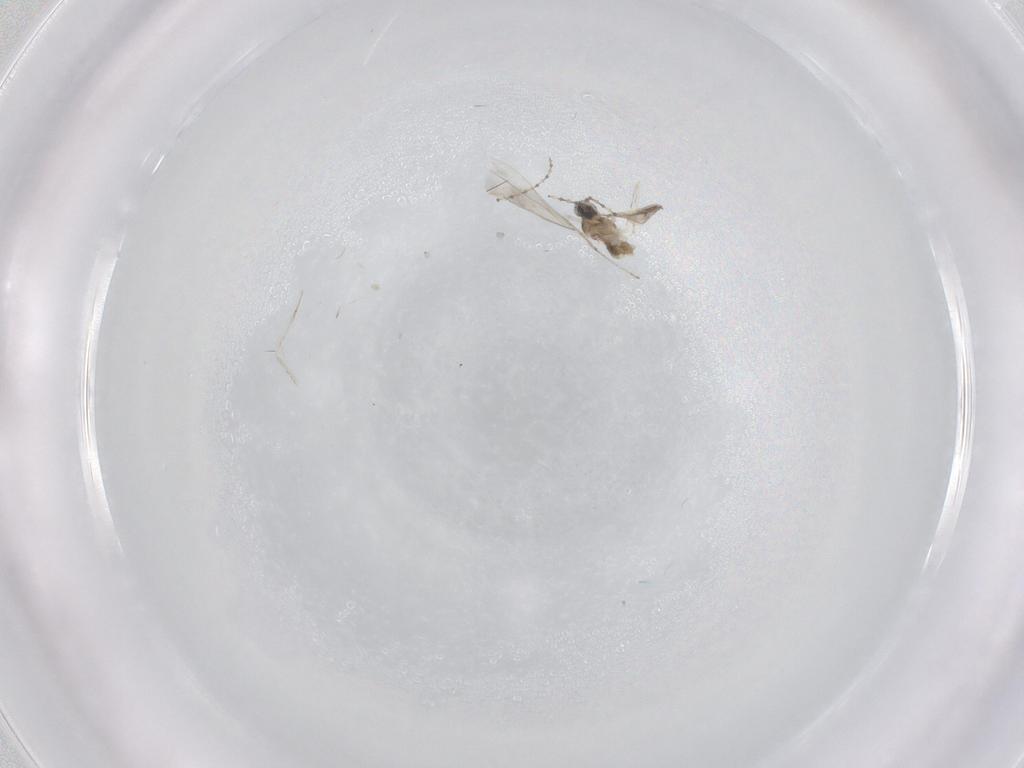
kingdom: Animalia
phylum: Arthropoda
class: Insecta
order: Diptera
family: Cecidomyiidae
